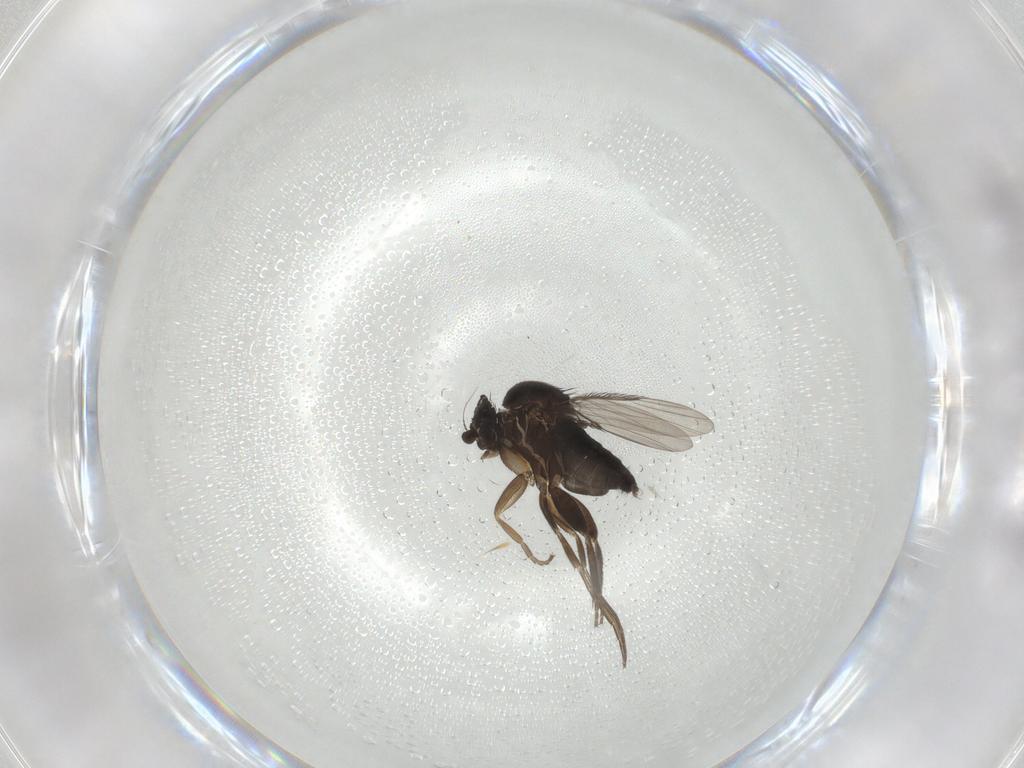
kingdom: Animalia
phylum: Arthropoda
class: Insecta
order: Diptera
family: Phoridae
